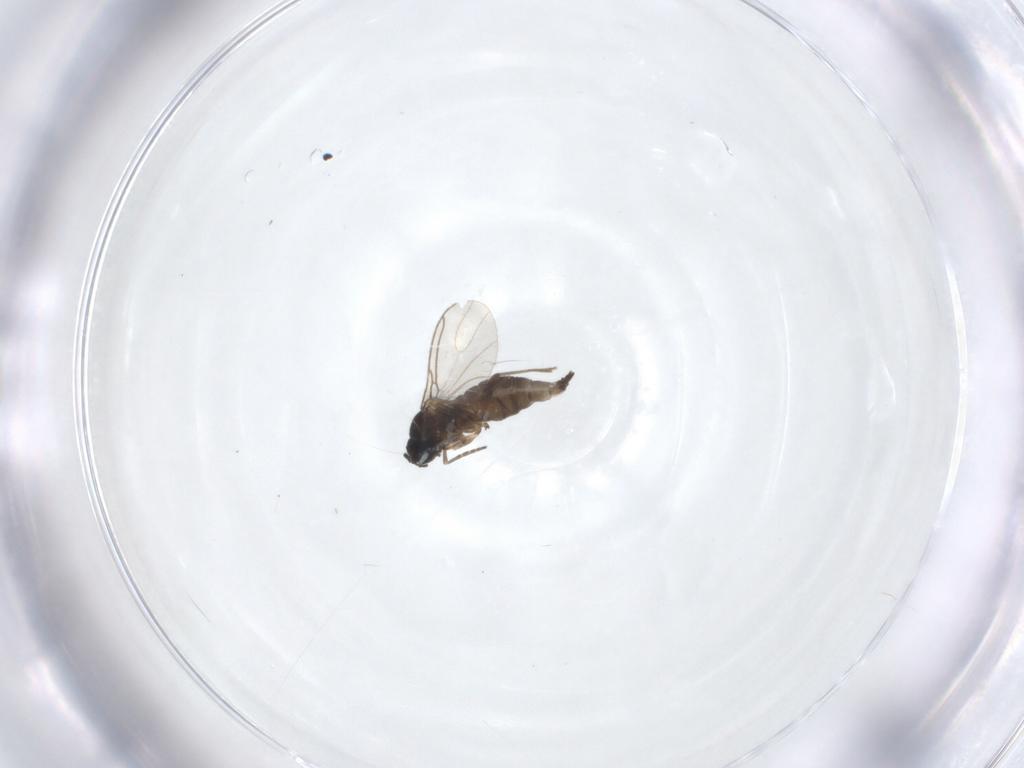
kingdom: Animalia
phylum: Arthropoda
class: Insecta
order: Diptera
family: Sciaridae
